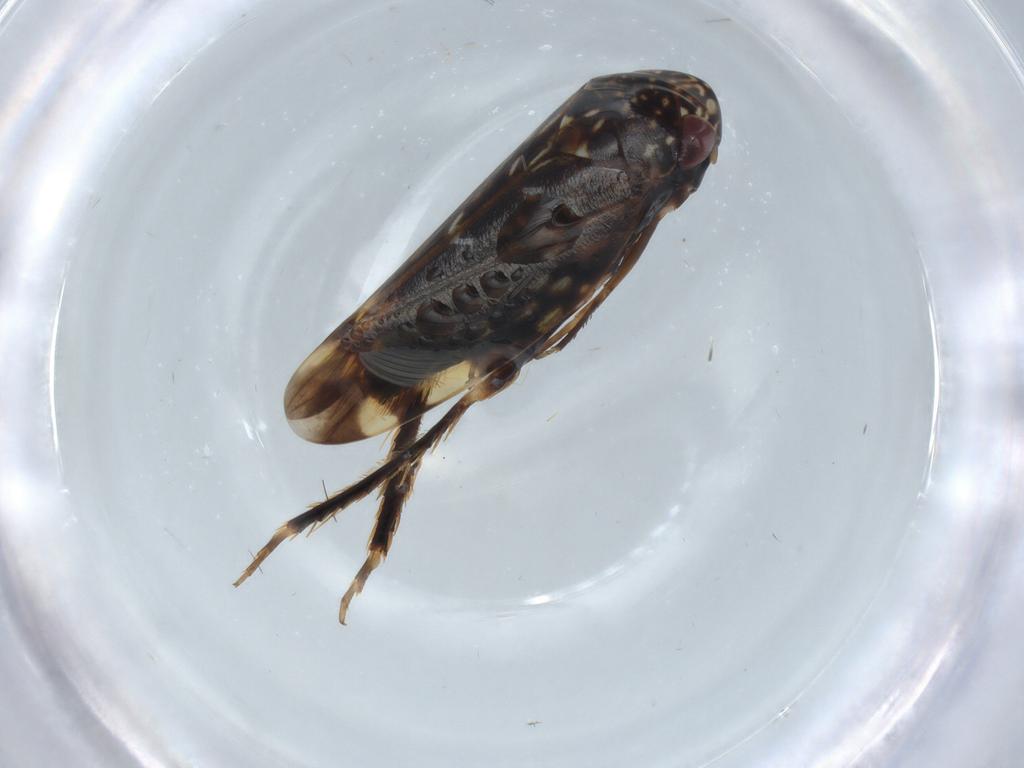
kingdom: Animalia
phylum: Arthropoda
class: Insecta
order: Hemiptera
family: Cicadellidae
